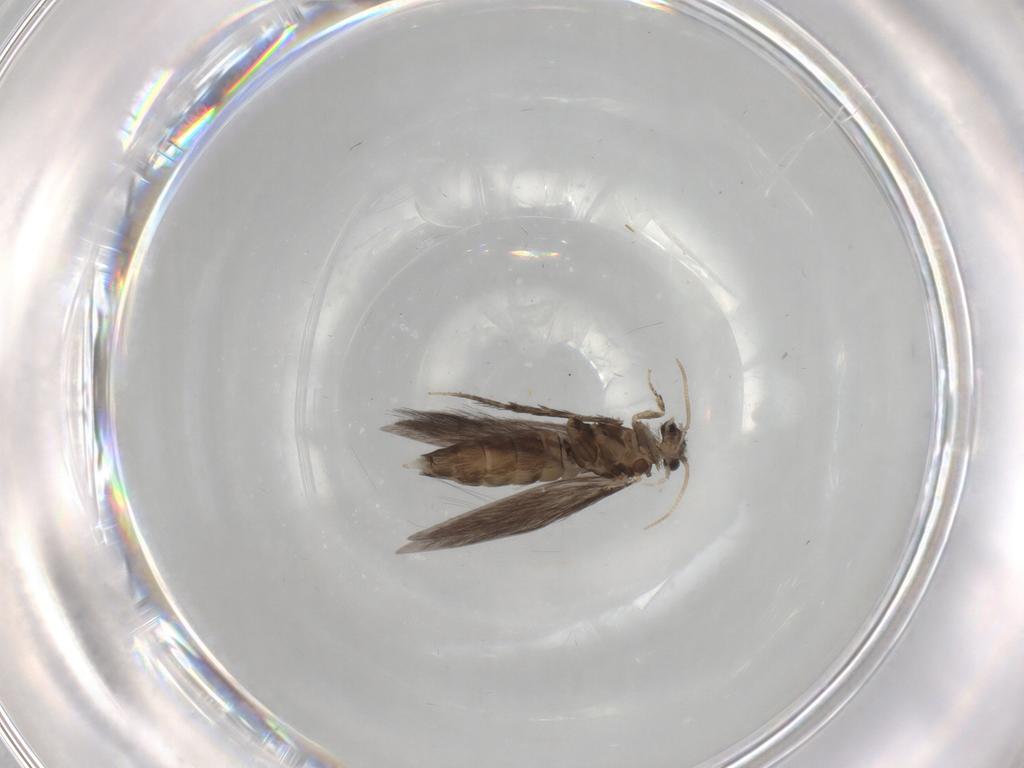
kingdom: Animalia
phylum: Arthropoda
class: Insecta
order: Trichoptera
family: Hydroptilidae
